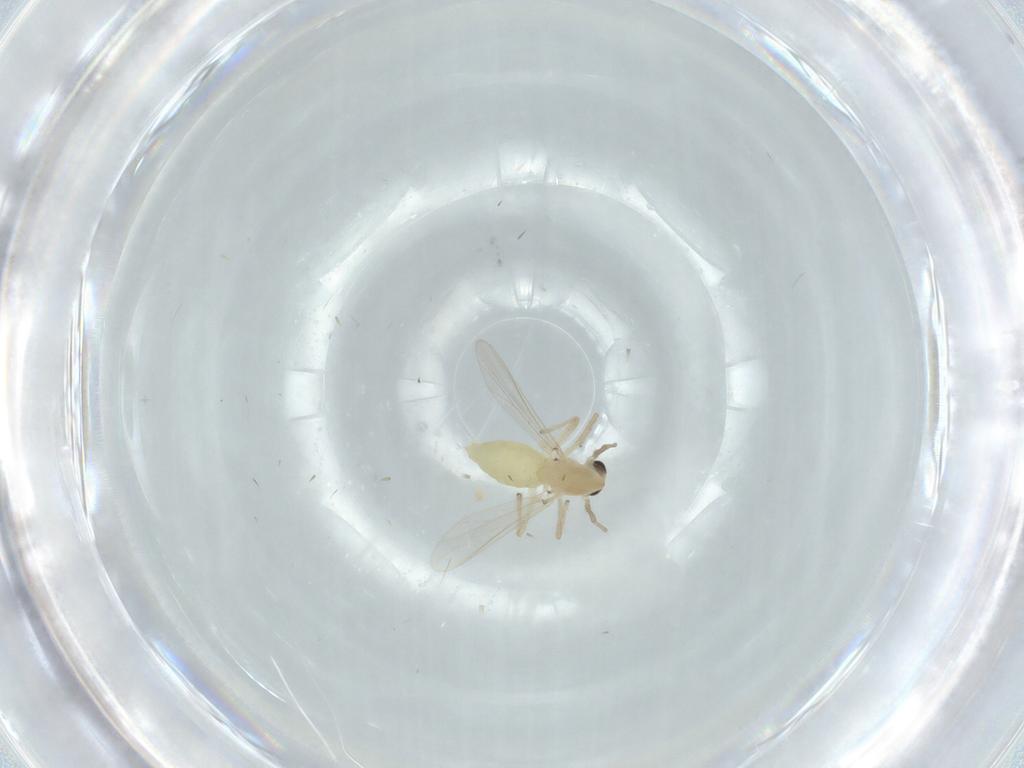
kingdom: Animalia
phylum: Arthropoda
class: Insecta
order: Diptera
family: Chironomidae
